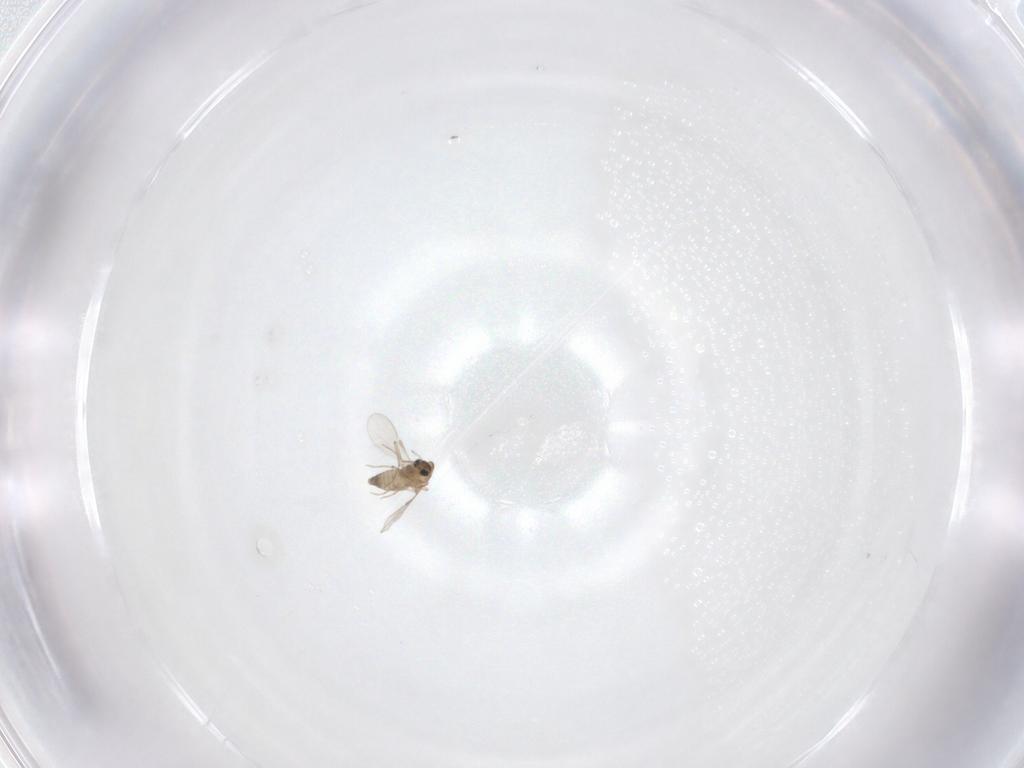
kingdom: Animalia
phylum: Arthropoda
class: Insecta
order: Diptera
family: Chironomidae
